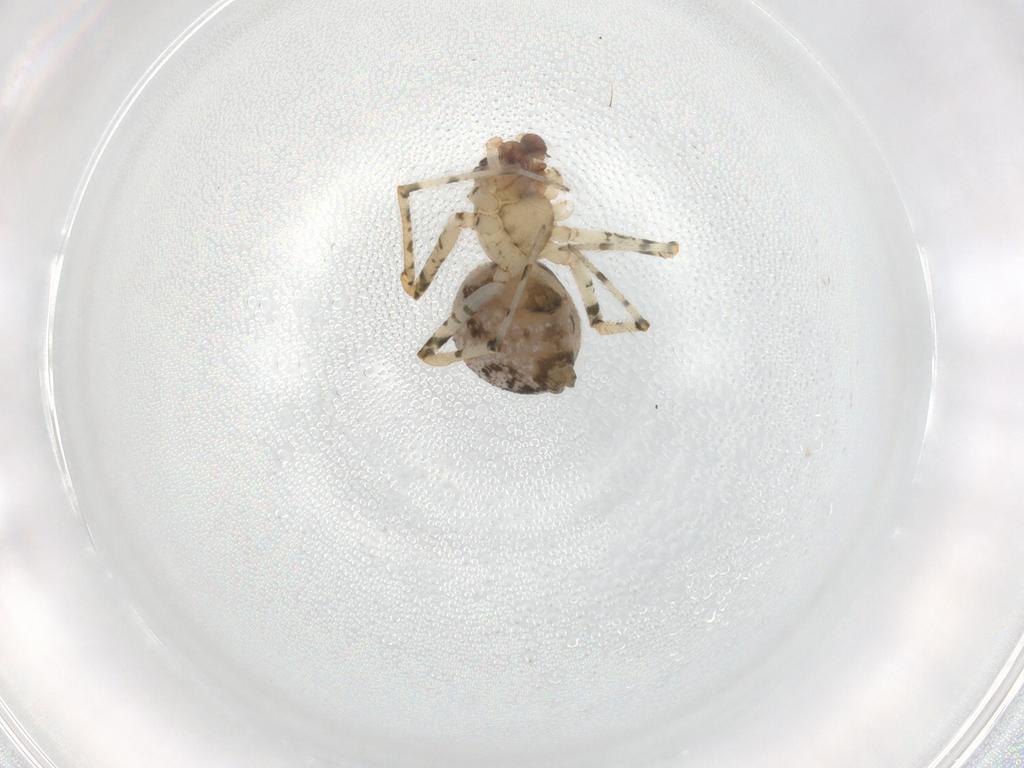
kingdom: Animalia
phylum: Arthropoda
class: Arachnida
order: Araneae
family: Theridiidae
